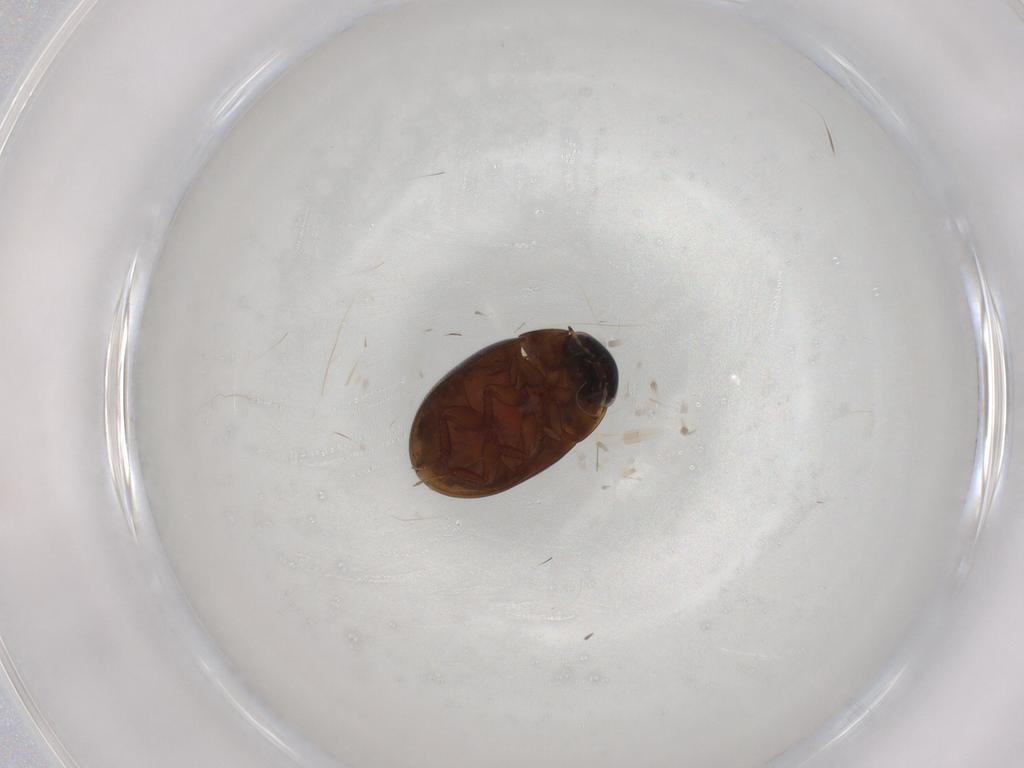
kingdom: Animalia
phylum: Arthropoda
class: Insecta
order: Coleoptera
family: Hydrophilidae
